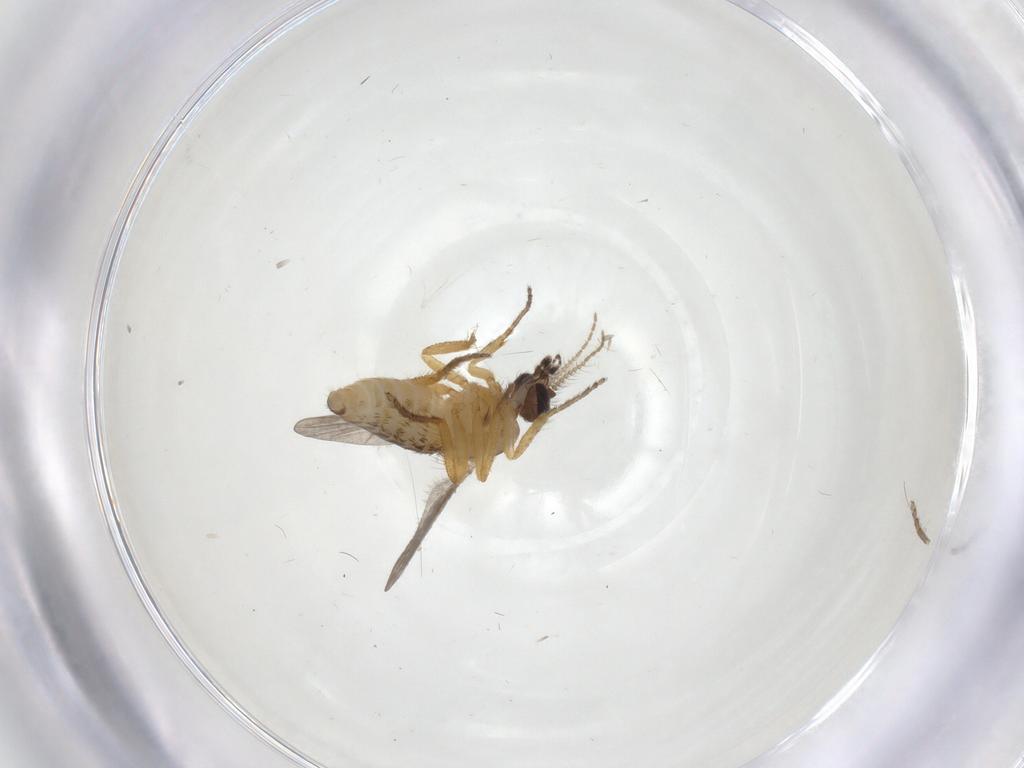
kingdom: Animalia
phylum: Arthropoda
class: Insecta
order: Diptera
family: Ceratopogonidae
